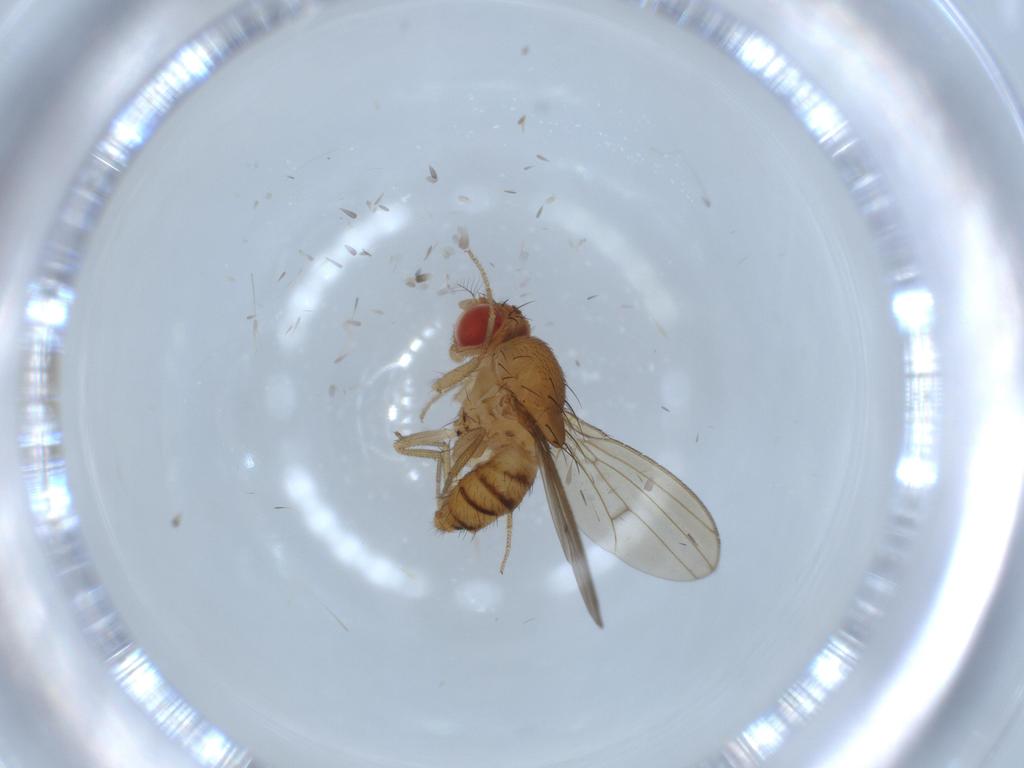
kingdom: Animalia
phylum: Arthropoda
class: Insecta
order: Diptera
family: Drosophilidae
